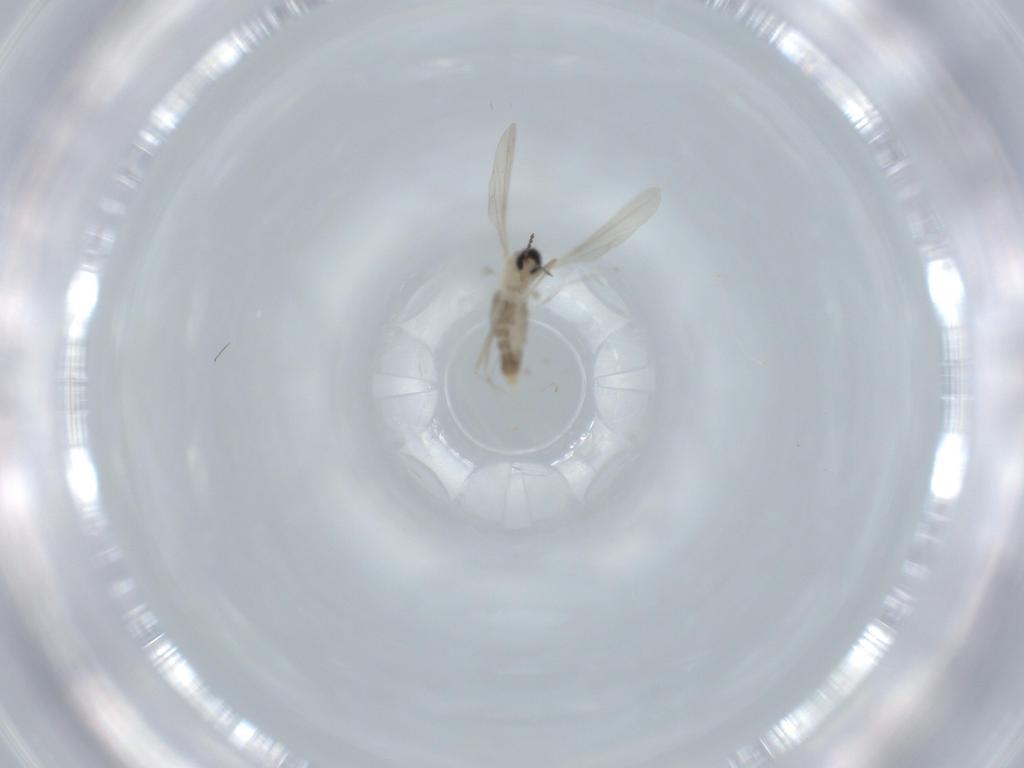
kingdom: Animalia
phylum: Arthropoda
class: Insecta
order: Diptera
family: Cecidomyiidae
